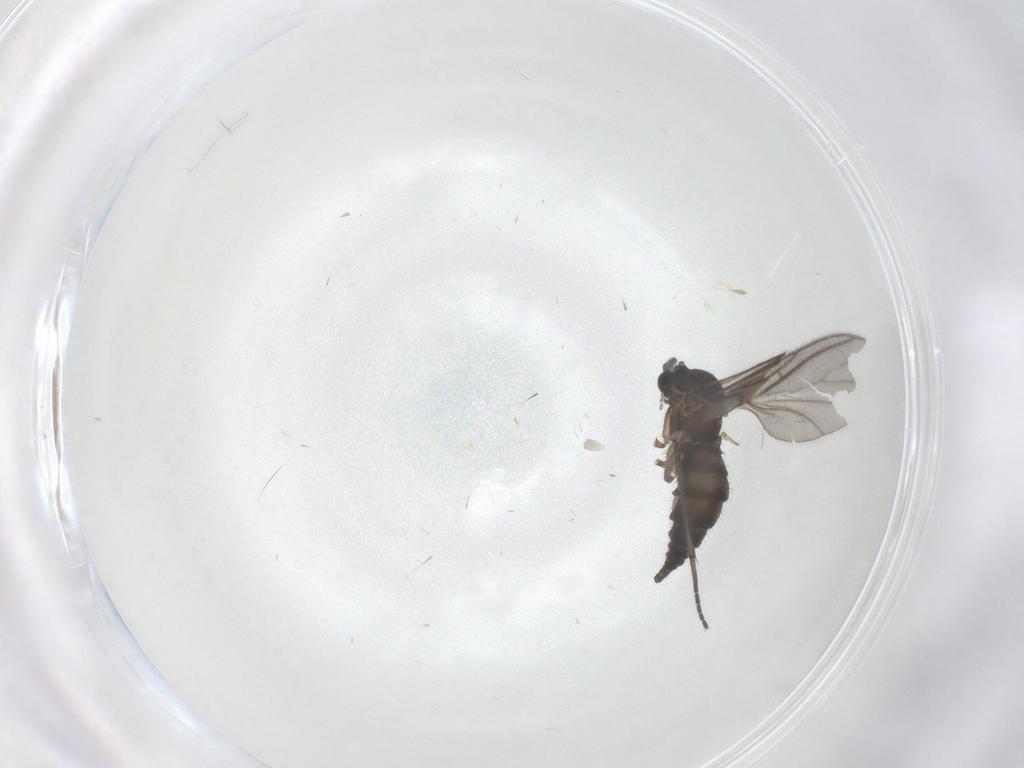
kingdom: Animalia
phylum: Arthropoda
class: Insecta
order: Diptera
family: Sciaridae
